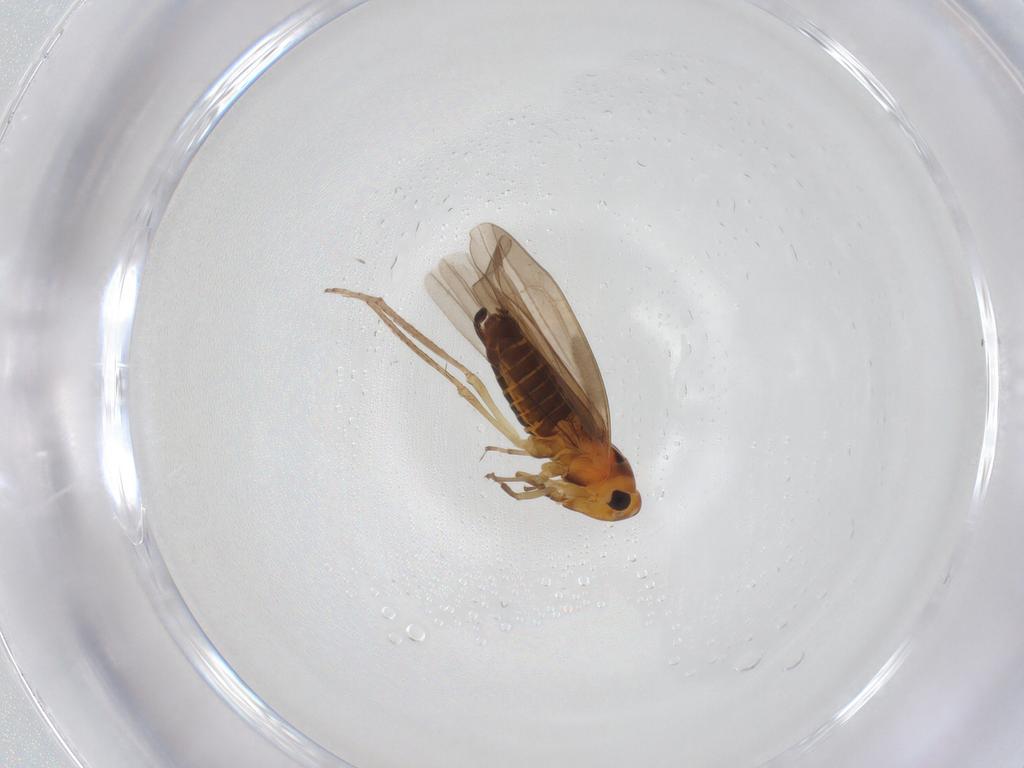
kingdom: Animalia
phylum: Arthropoda
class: Insecta
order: Hemiptera
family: Cicadellidae
